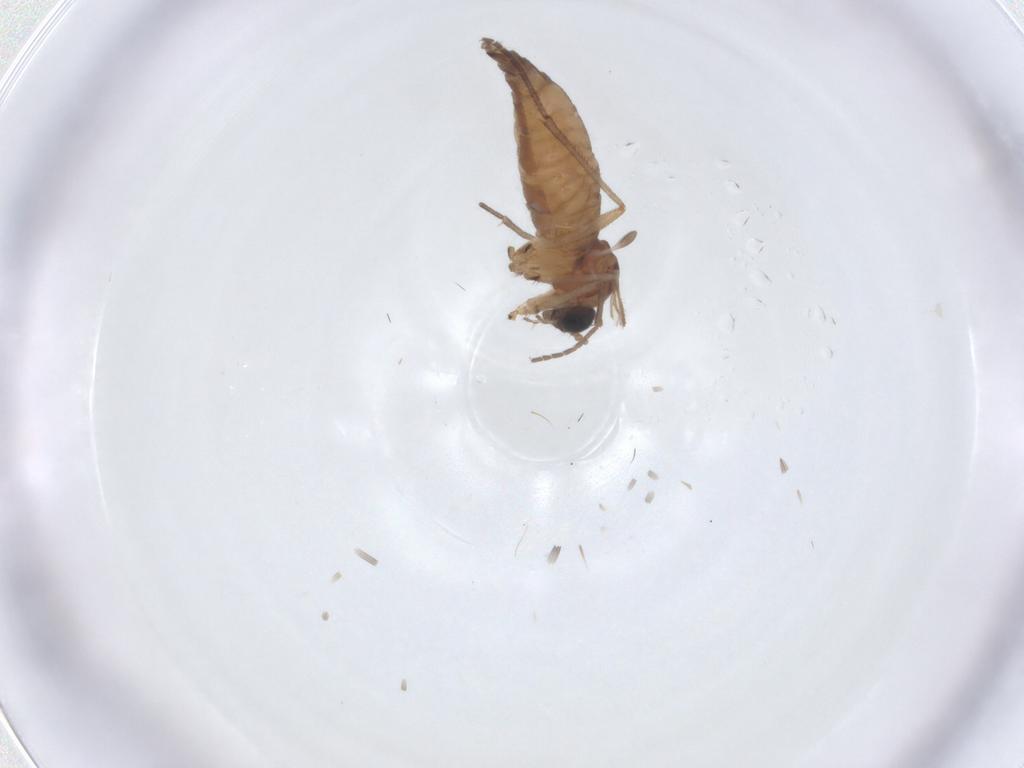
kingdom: Animalia
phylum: Arthropoda
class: Insecta
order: Diptera
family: Sciaridae
